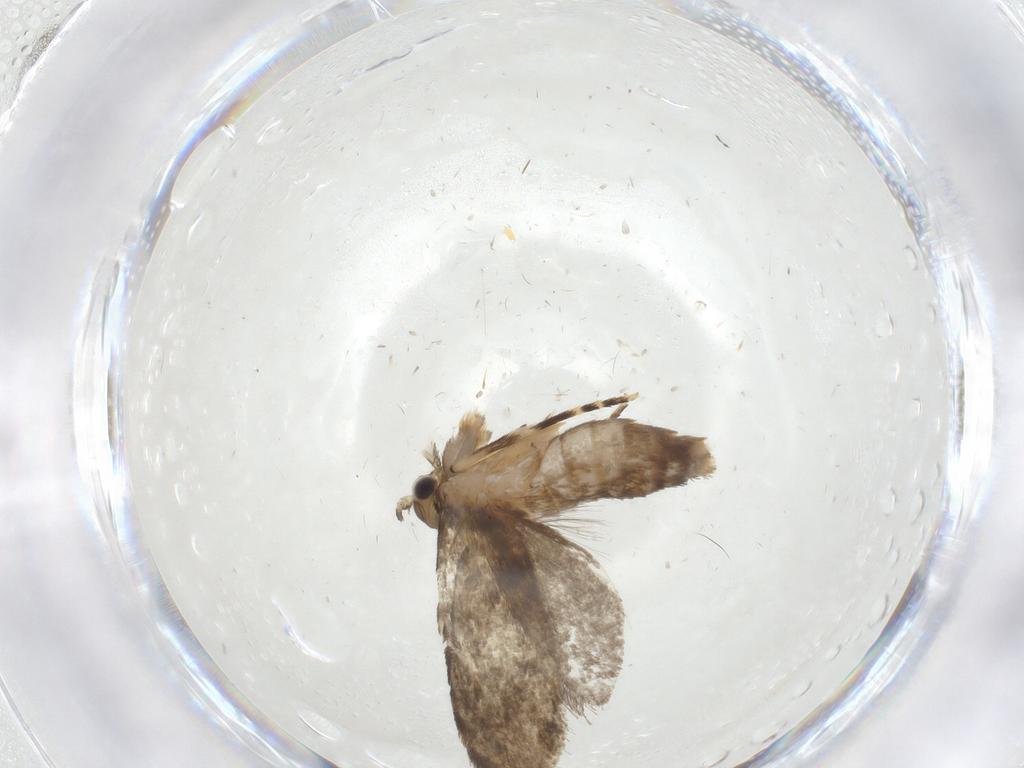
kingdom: Animalia
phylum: Arthropoda
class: Insecta
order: Lepidoptera
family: Tineidae
